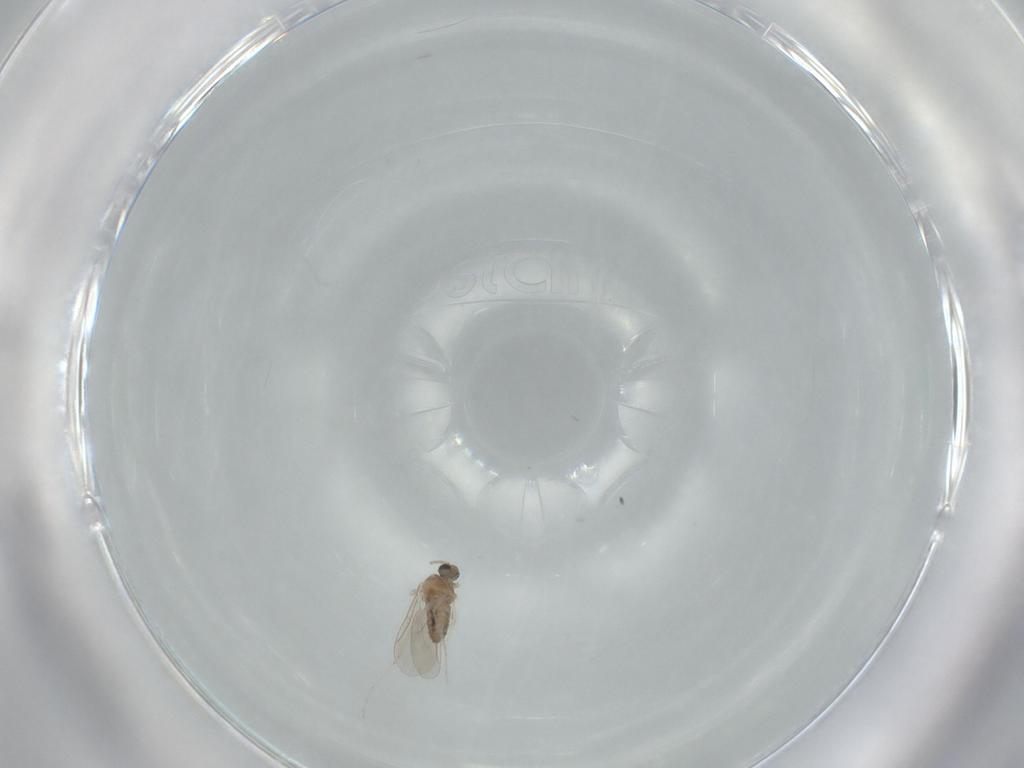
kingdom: Animalia
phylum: Arthropoda
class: Insecta
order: Diptera
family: Cecidomyiidae
